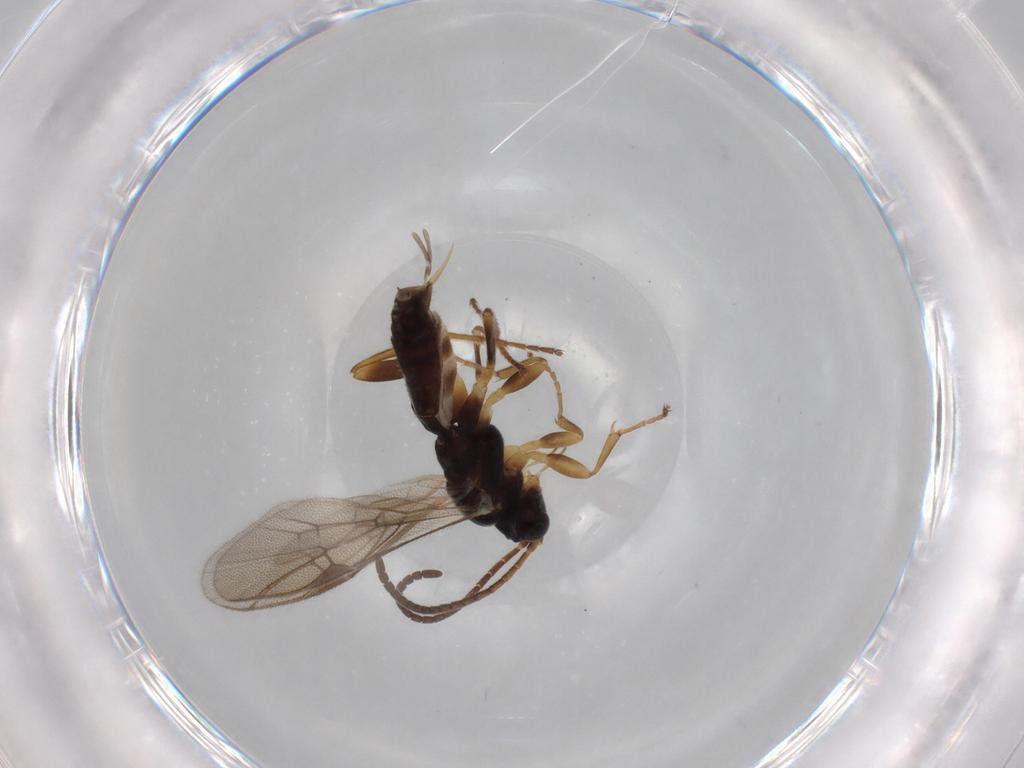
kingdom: Animalia
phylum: Arthropoda
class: Insecta
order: Hymenoptera
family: Ichneumonidae
